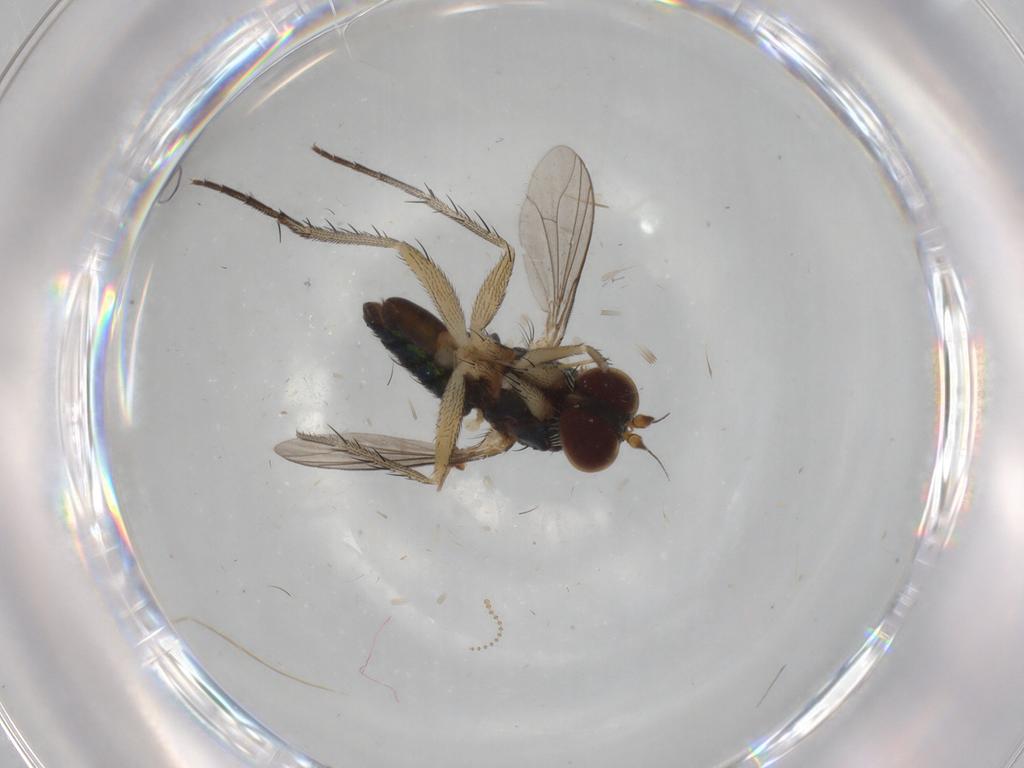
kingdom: Animalia
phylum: Arthropoda
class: Insecta
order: Diptera
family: Dolichopodidae
